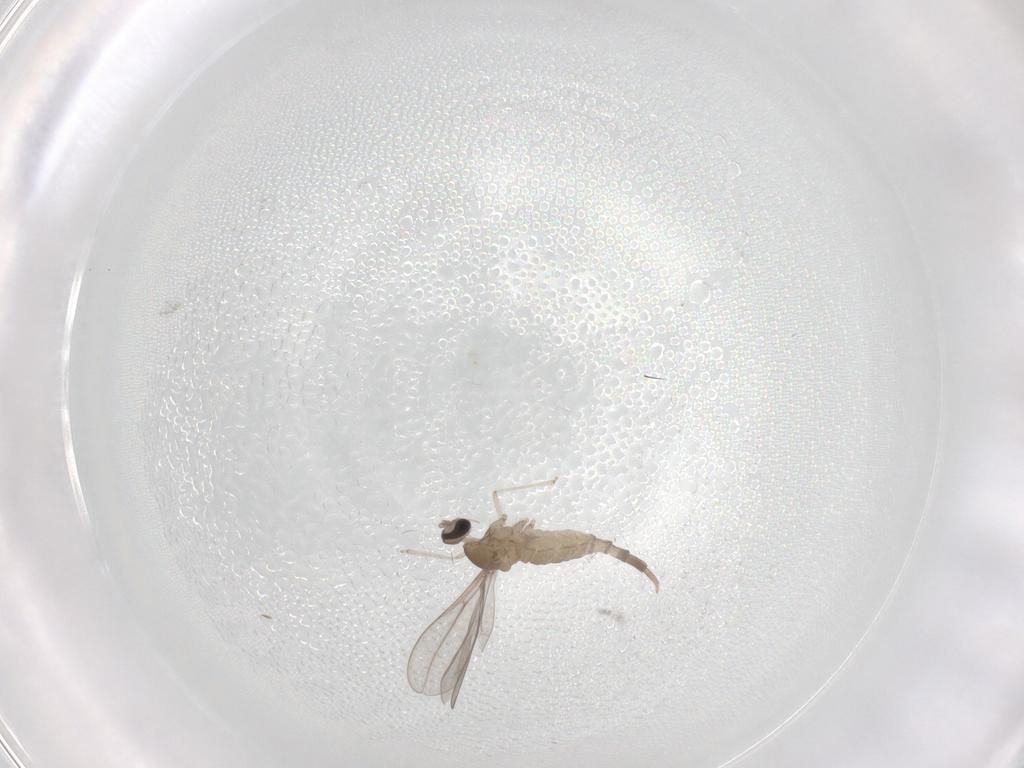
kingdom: Animalia
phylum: Arthropoda
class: Insecta
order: Diptera
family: Cecidomyiidae
